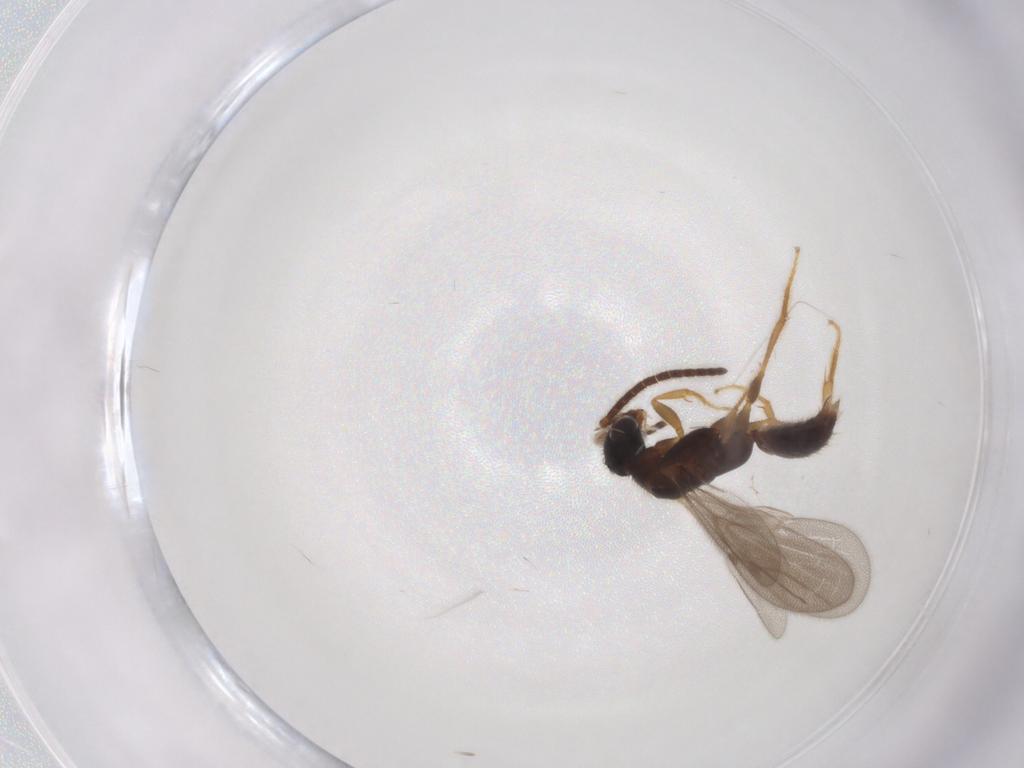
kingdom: Animalia
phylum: Arthropoda
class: Insecta
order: Hymenoptera
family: Bethylidae
